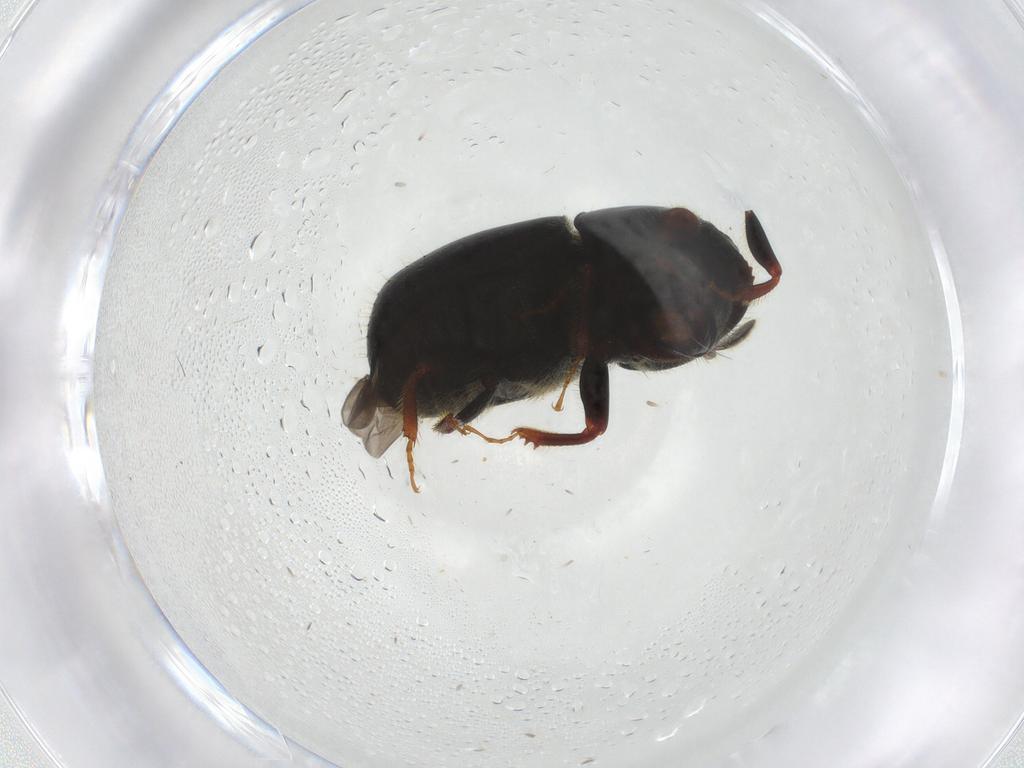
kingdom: Animalia
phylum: Arthropoda
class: Insecta
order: Coleoptera
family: Curculionidae
